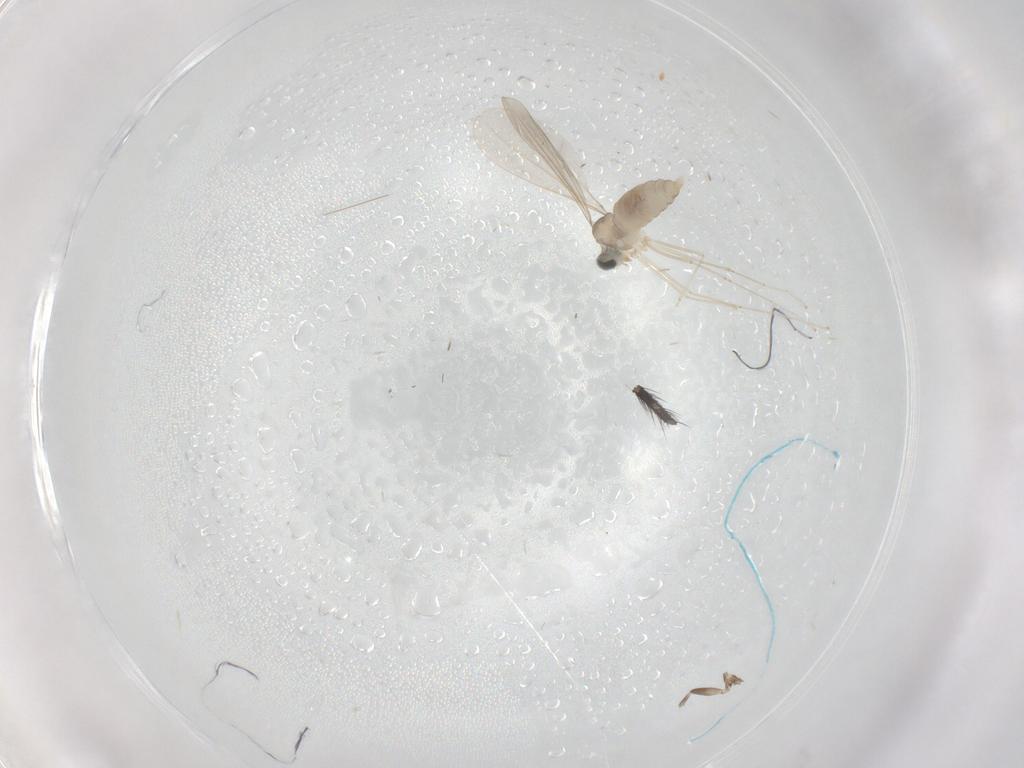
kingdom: Animalia
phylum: Arthropoda
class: Insecta
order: Diptera
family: Cecidomyiidae
